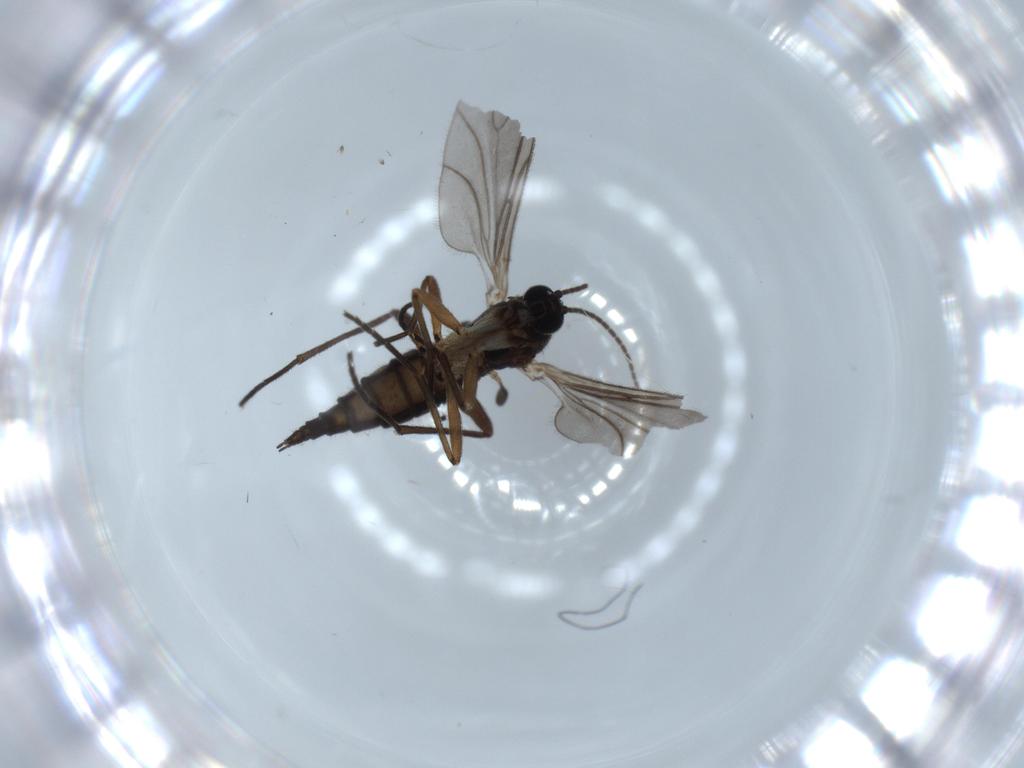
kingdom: Animalia
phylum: Arthropoda
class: Insecta
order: Diptera
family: Sciaridae
